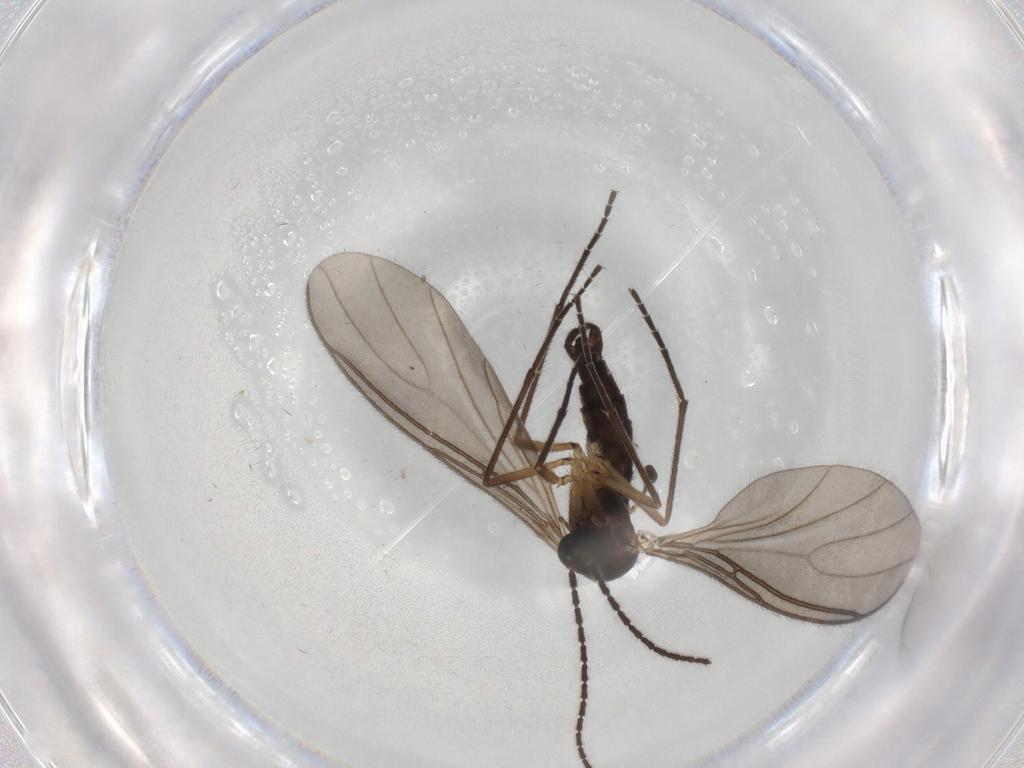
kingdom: Animalia
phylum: Arthropoda
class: Insecta
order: Diptera
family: Sciaridae
